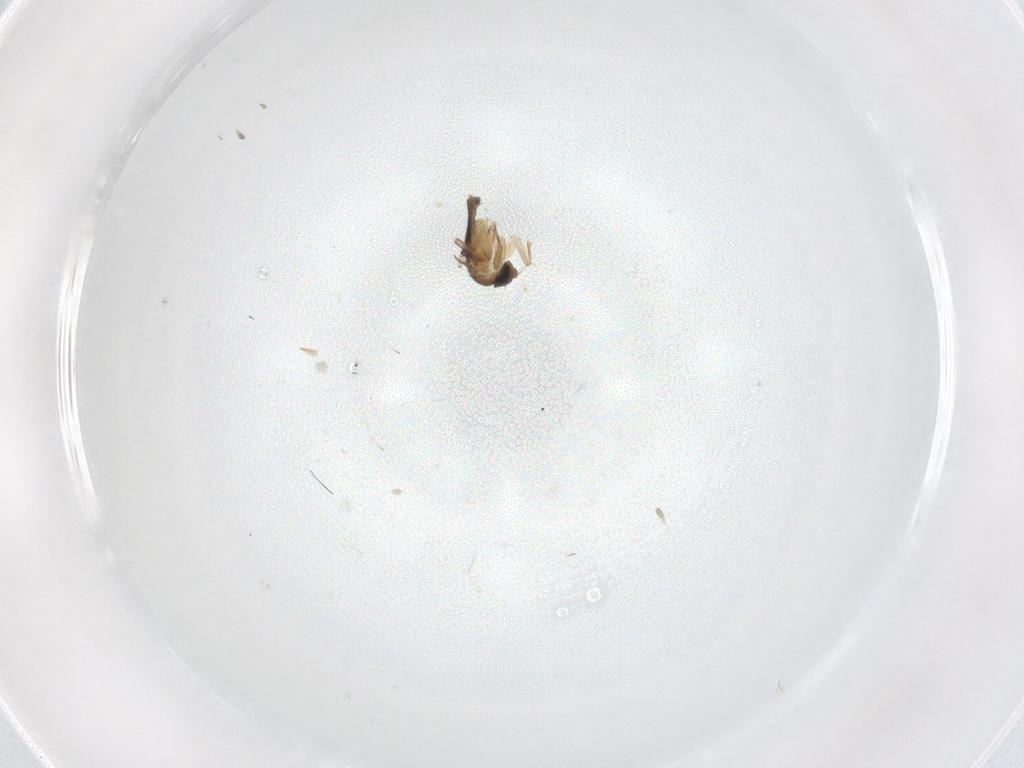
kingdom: Animalia
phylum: Arthropoda
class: Insecta
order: Diptera
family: Phoridae
